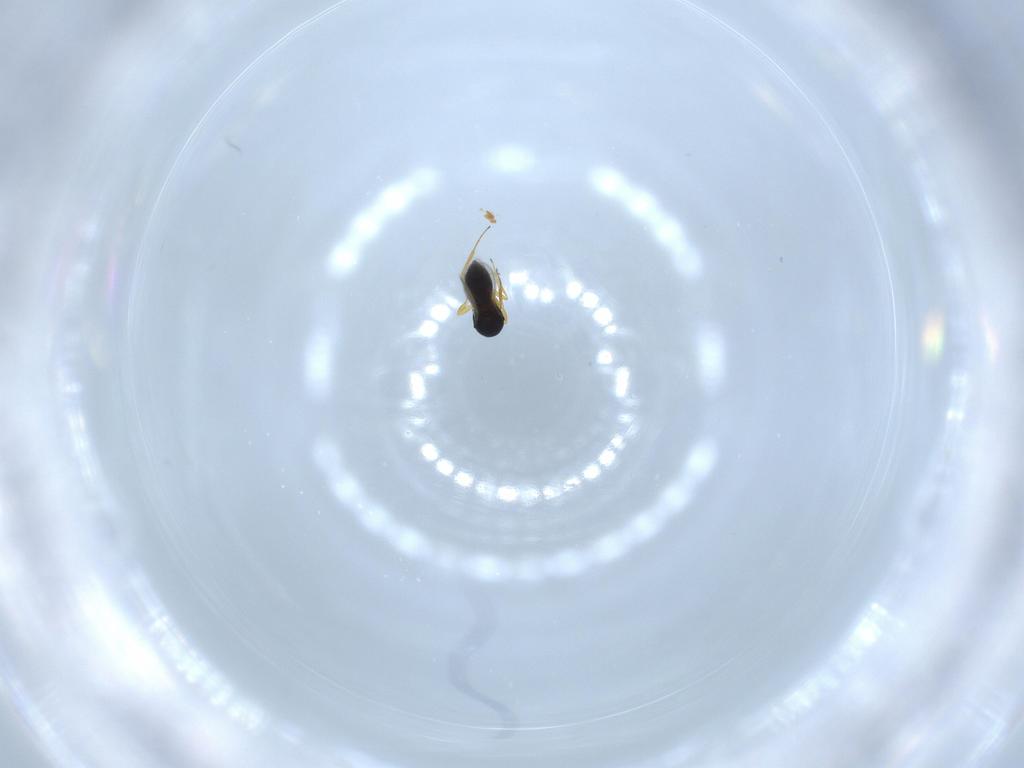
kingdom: Animalia
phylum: Arthropoda
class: Insecta
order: Hymenoptera
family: Scelionidae
